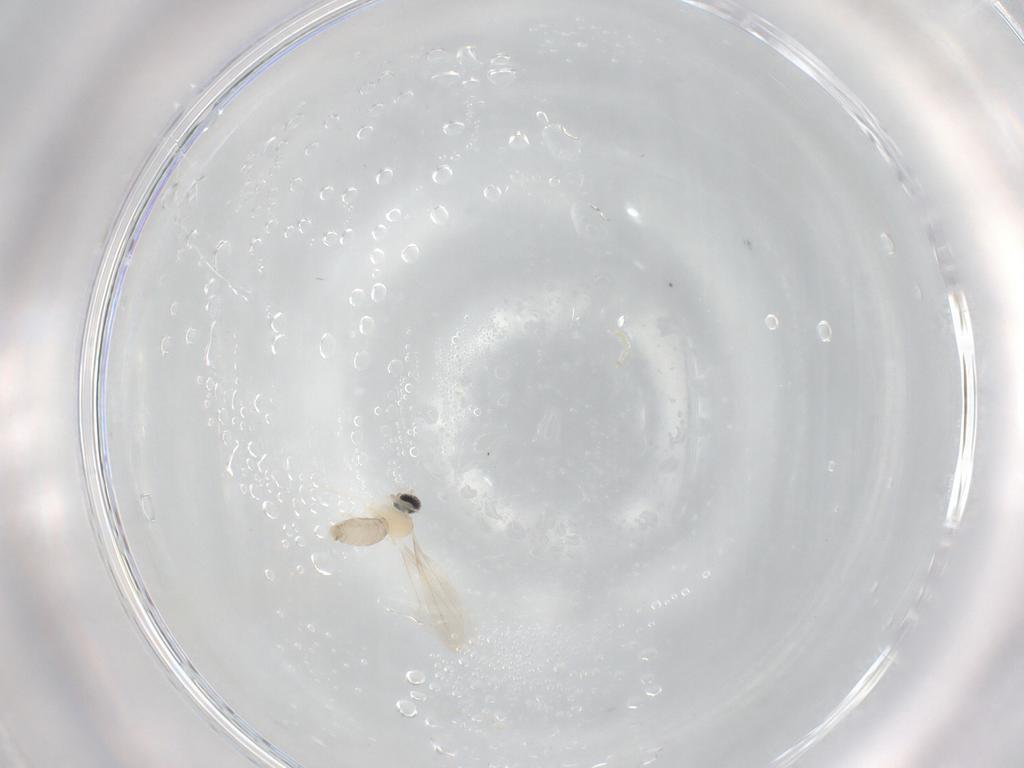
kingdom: Animalia
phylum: Arthropoda
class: Insecta
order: Diptera
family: Cecidomyiidae
